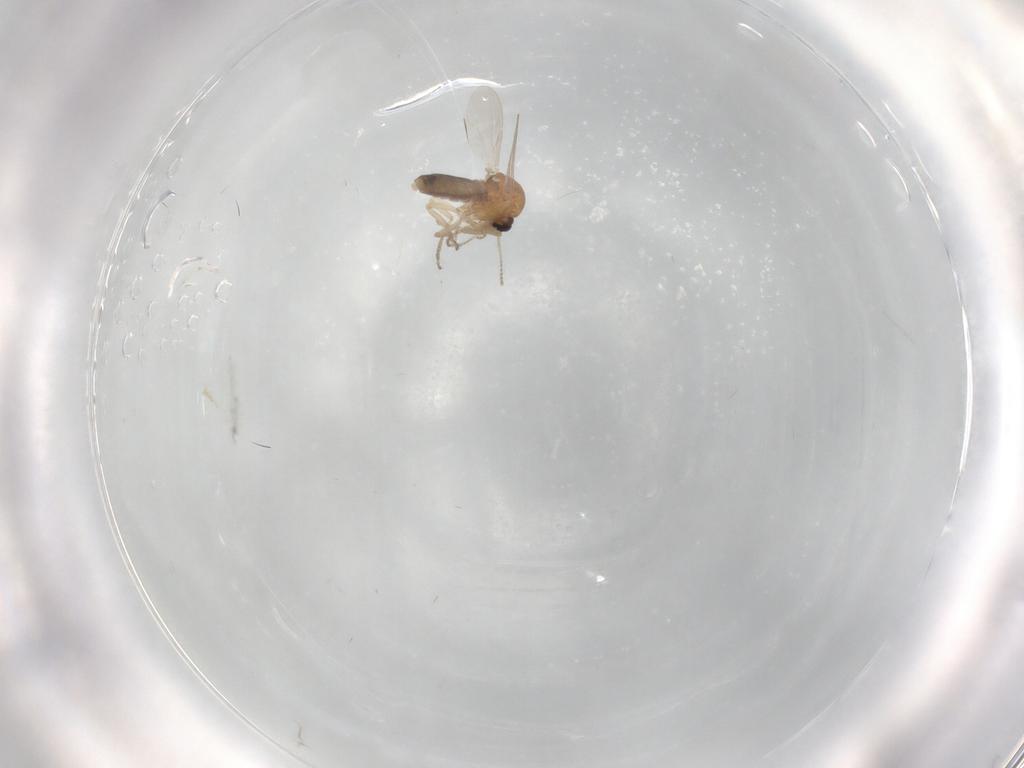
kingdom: Animalia
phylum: Arthropoda
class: Insecta
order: Diptera
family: Ceratopogonidae
